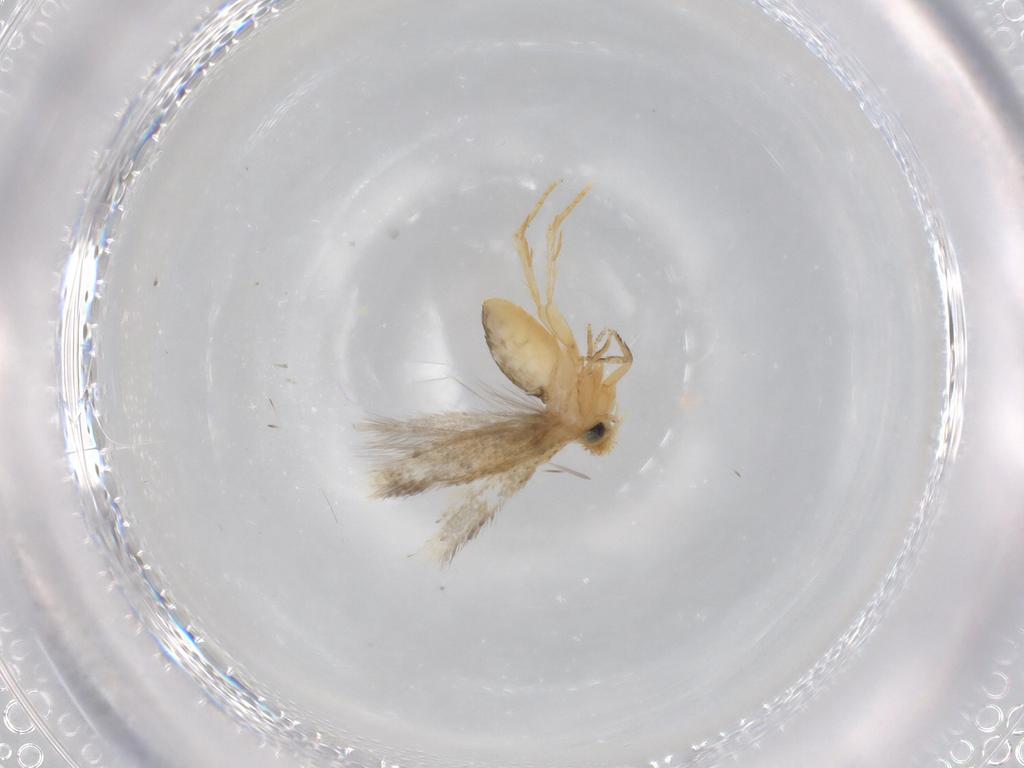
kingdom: Animalia
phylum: Arthropoda
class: Insecta
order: Lepidoptera
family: Nepticulidae
